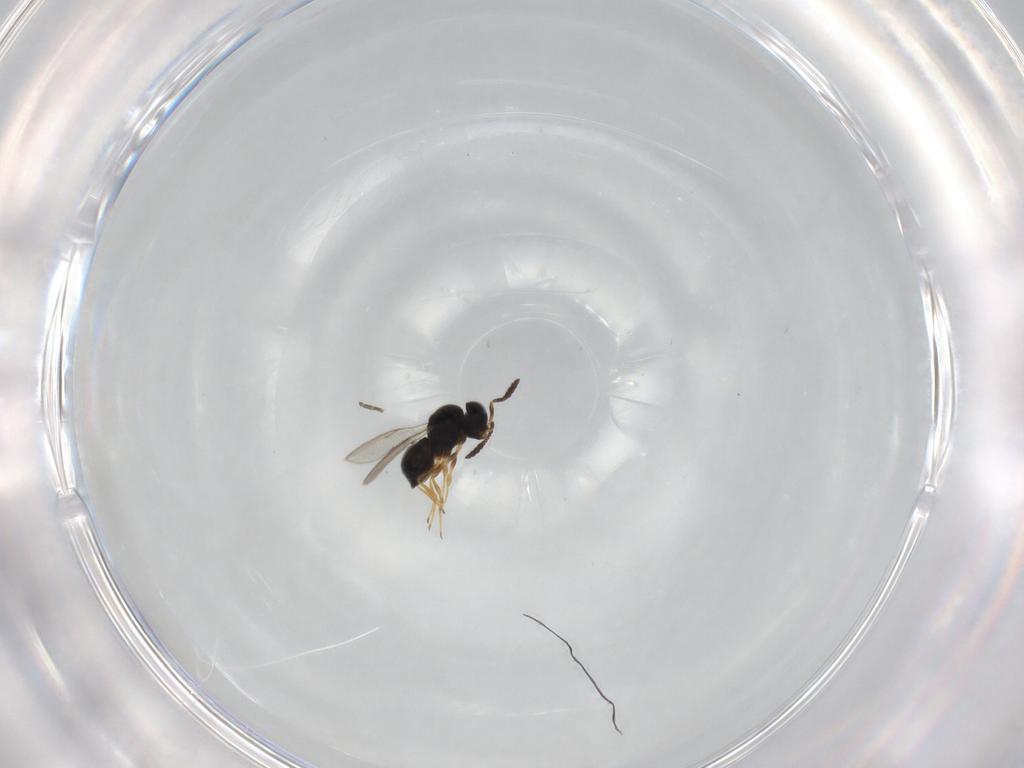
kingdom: Animalia
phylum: Arthropoda
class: Insecta
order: Hymenoptera
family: Scelionidae
